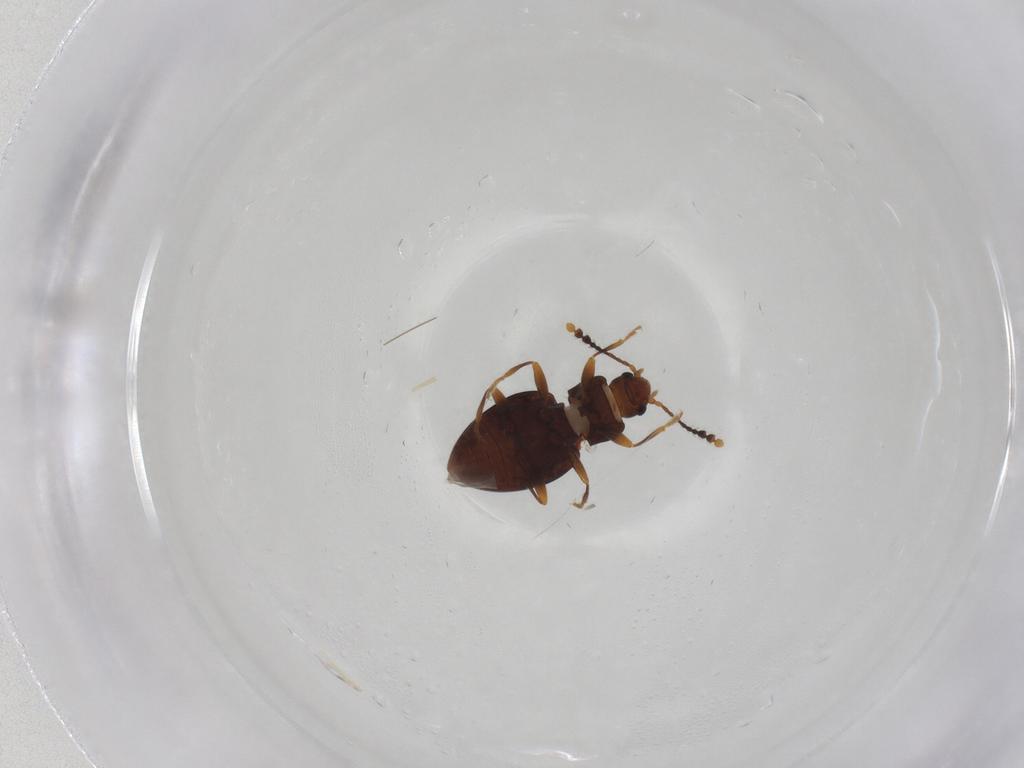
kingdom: Animalia
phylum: Arthropoda
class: Insecta
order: Coleoptera
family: Erotylidae
